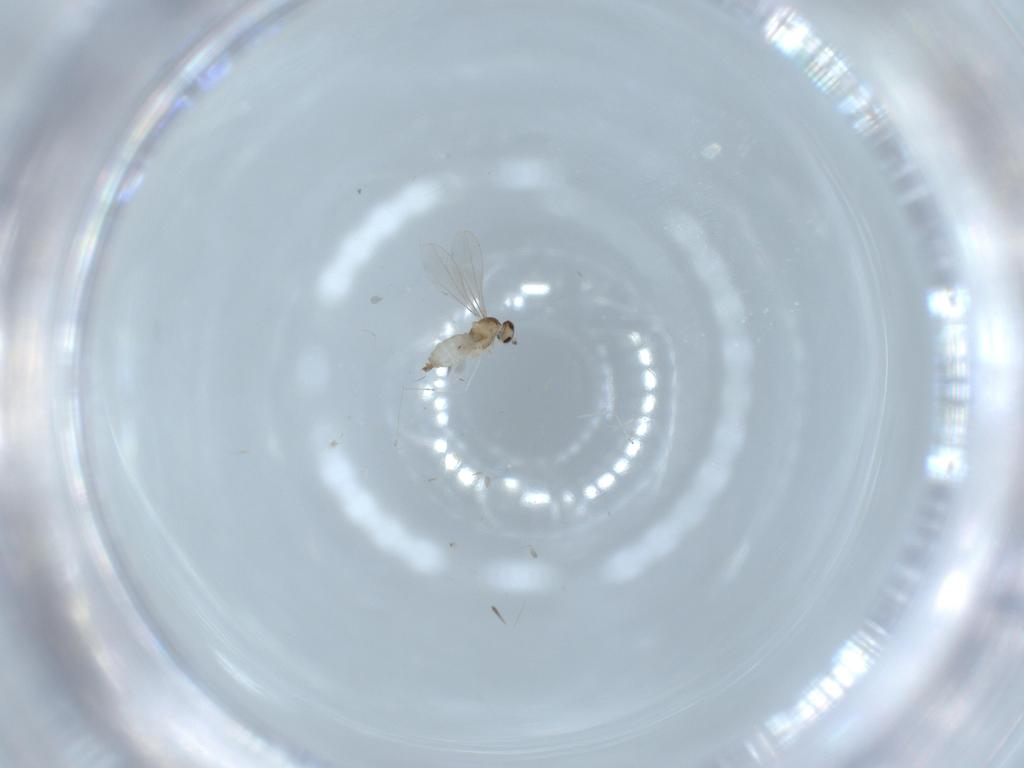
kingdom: Animalia
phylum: Arthropoda
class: Insecta
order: Diptera
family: Cecidomyiidae
